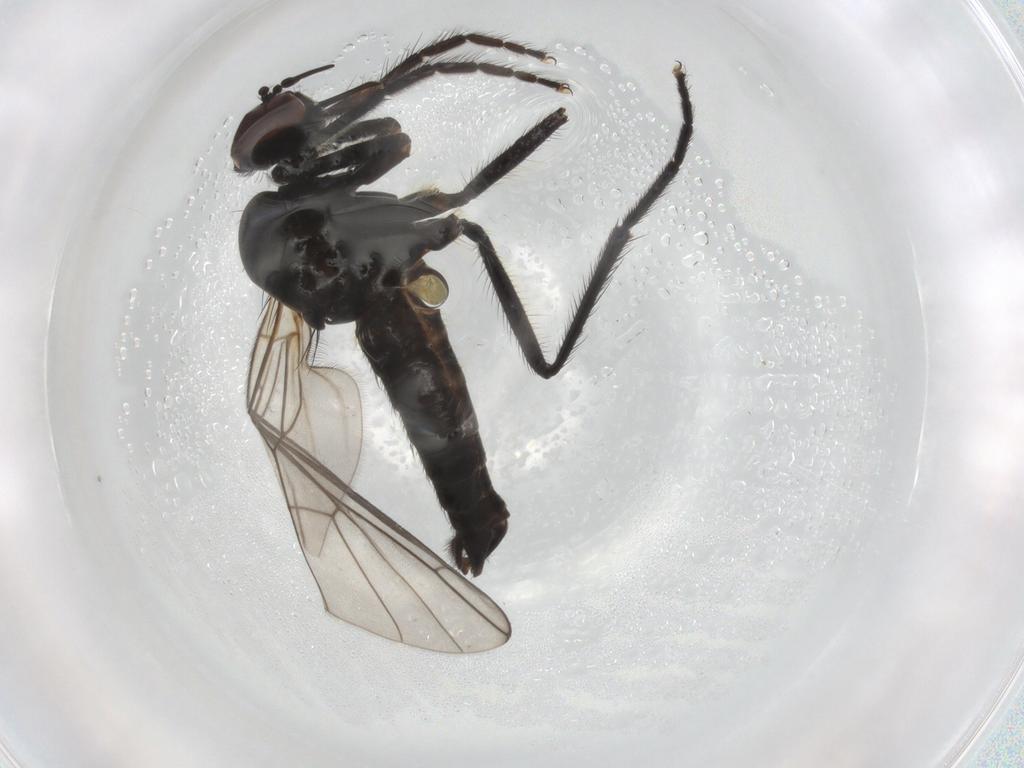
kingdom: Animalia
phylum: Arthropoda
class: Insecta
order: Diptera
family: Empididae
